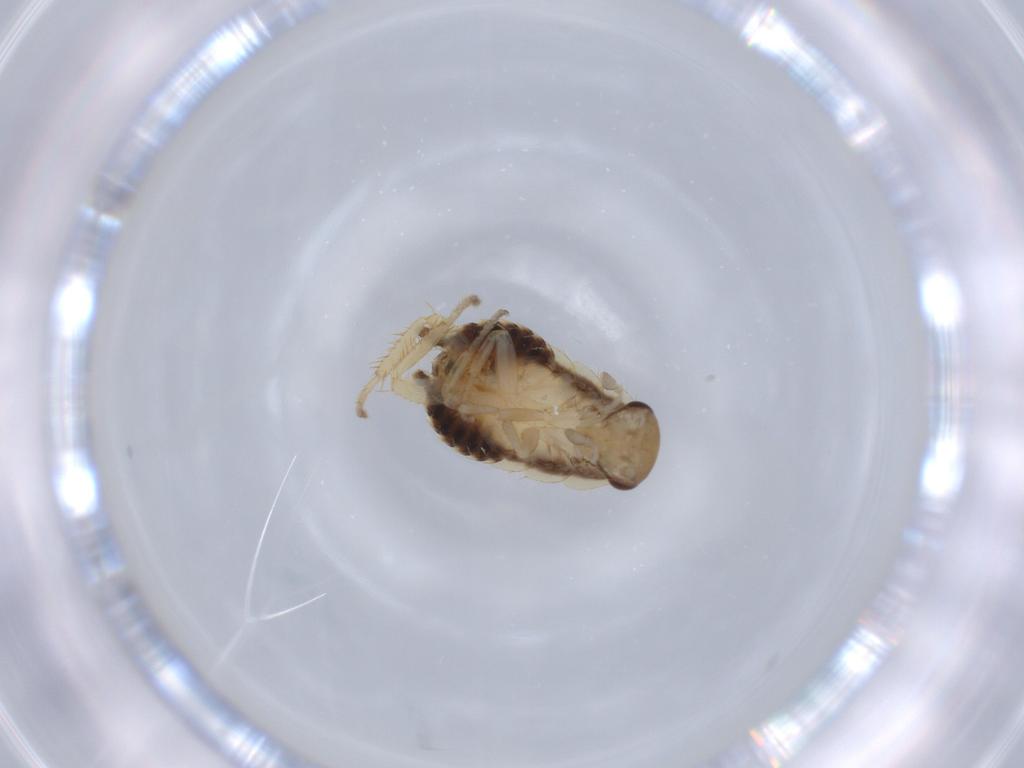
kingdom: Animalia
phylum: Arthropoda
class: Insecta
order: Blattodea
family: Ectobiidae
